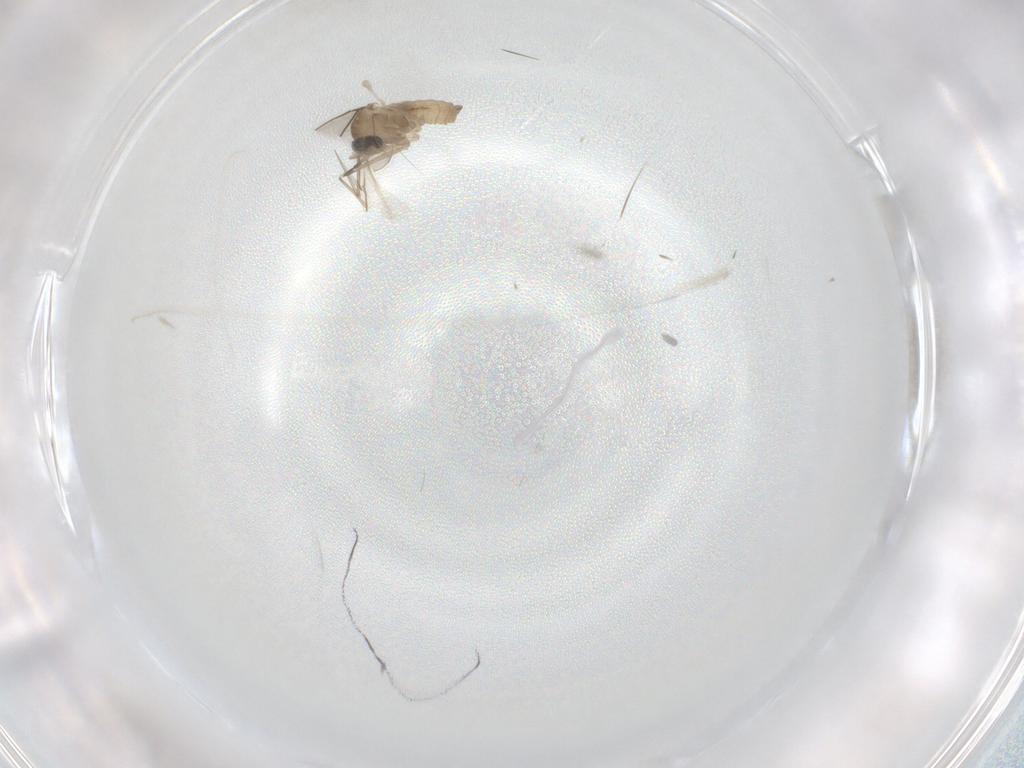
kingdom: Animalia
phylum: Arthropoda
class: Insecta
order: Diptera
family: Cecidomyiidae
